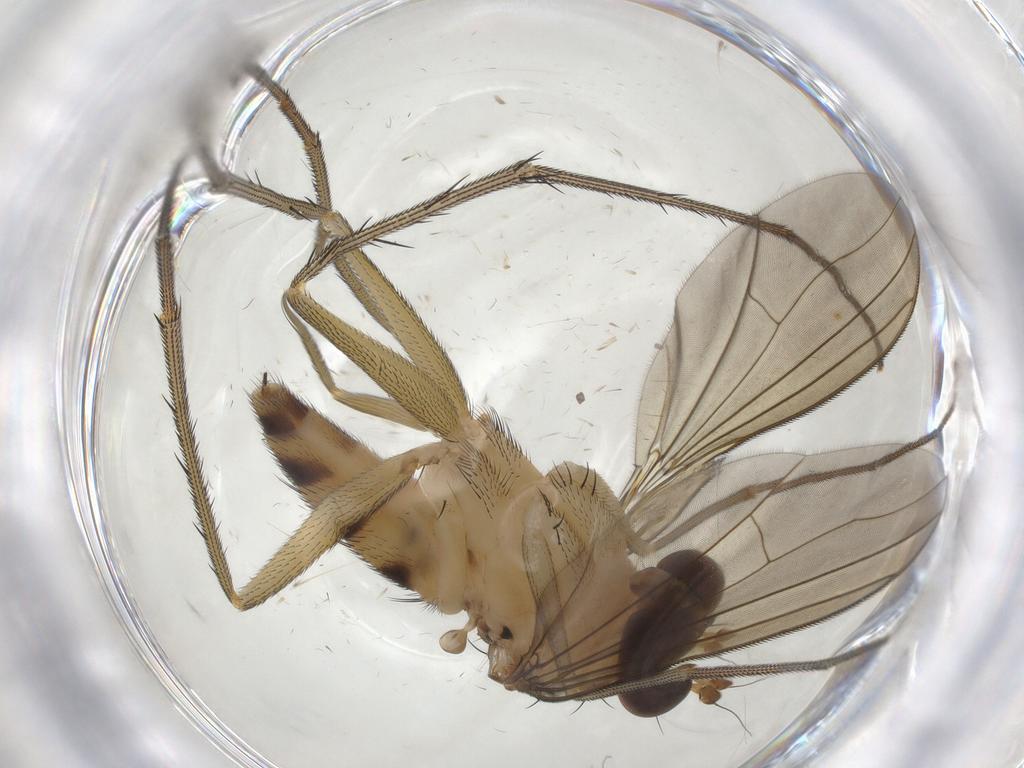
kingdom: Animalia
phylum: Arthropoda
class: Insecta
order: Diptera
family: Dolichopodidae
